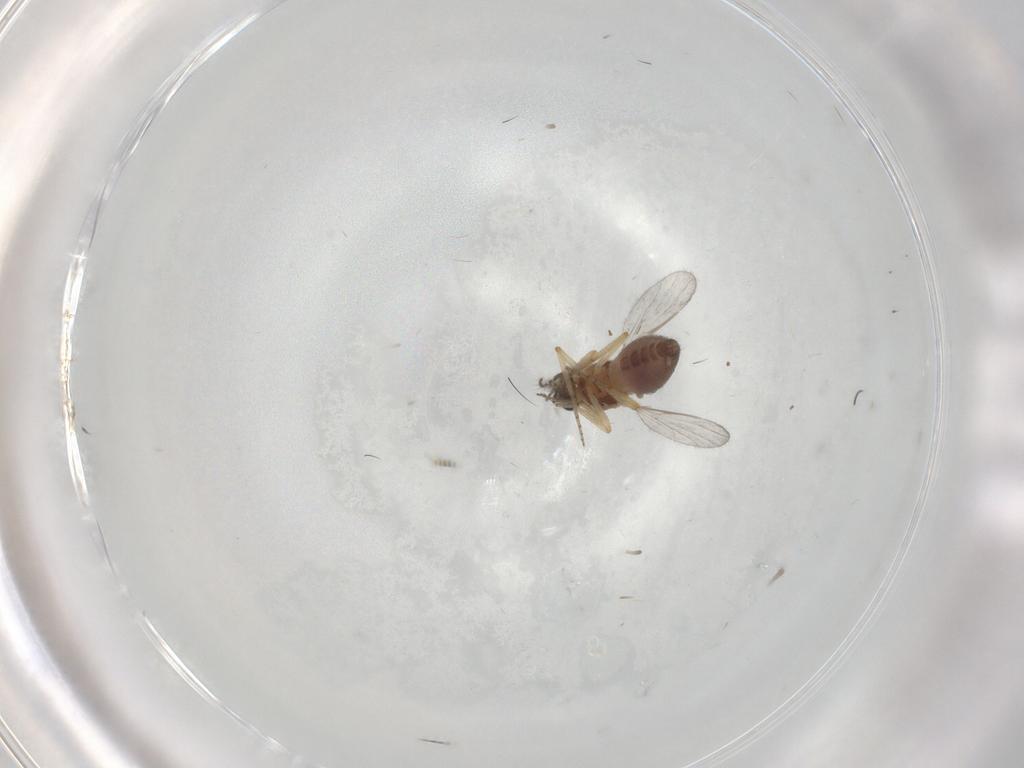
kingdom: Animalia
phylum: Arthropoda
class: Insecta
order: Diptera
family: Ceratopogonidae
